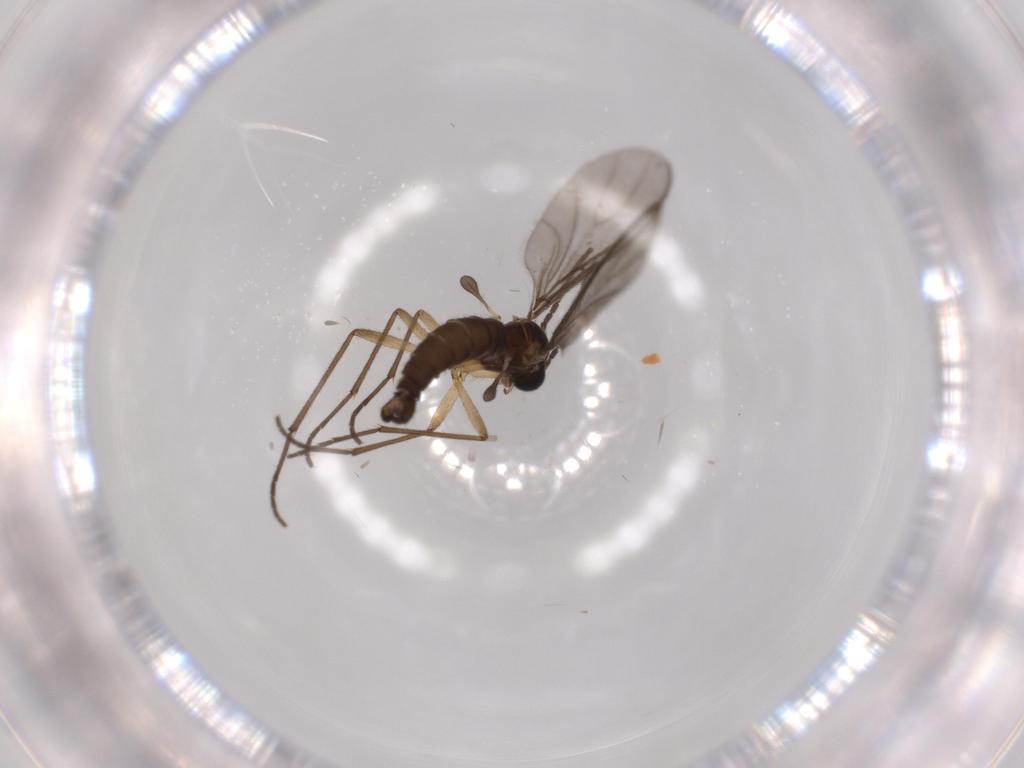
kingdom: Animalia
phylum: Arthropoda
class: Insecta
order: Diptera
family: Sciaridae
